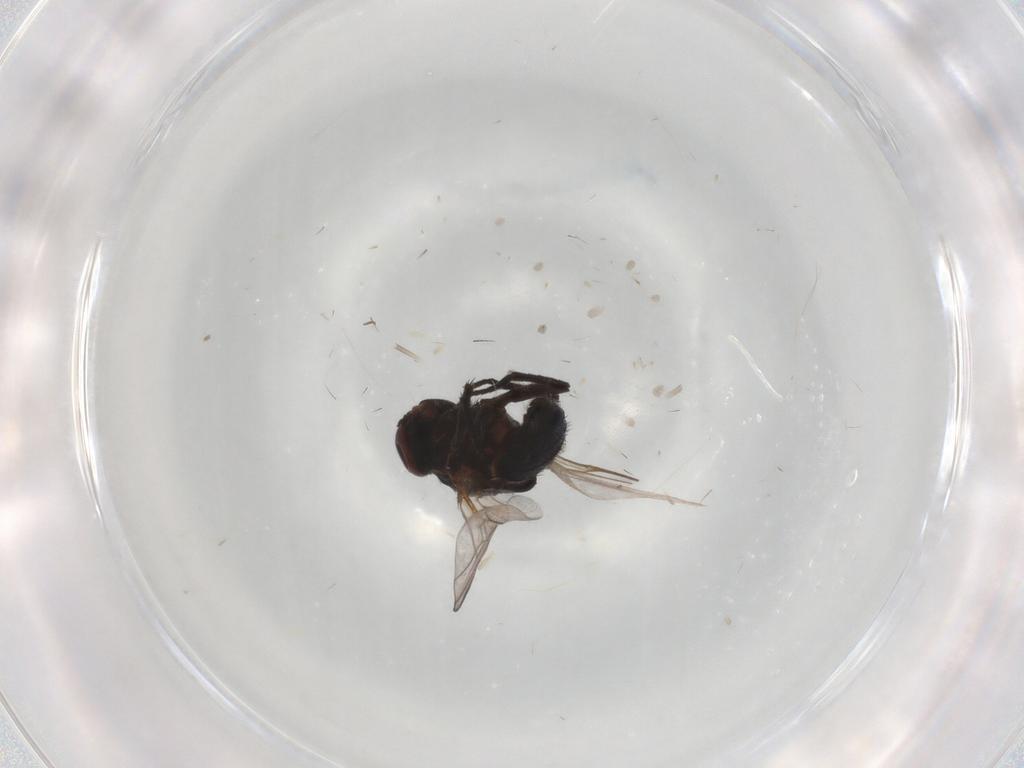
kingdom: Animalia
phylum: Arthropoda
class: Insecta
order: Diptera
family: Agromyzidae
